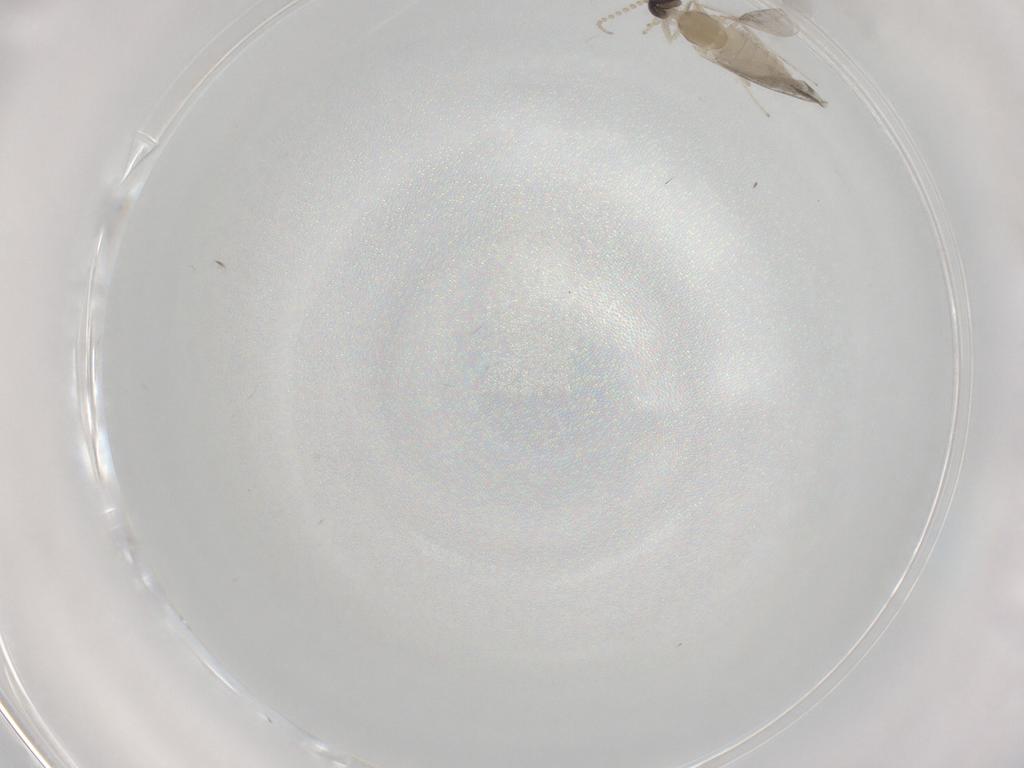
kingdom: Animalia
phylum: Arthropoda
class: Insecta
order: Diptera
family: Cecidomyiidae
